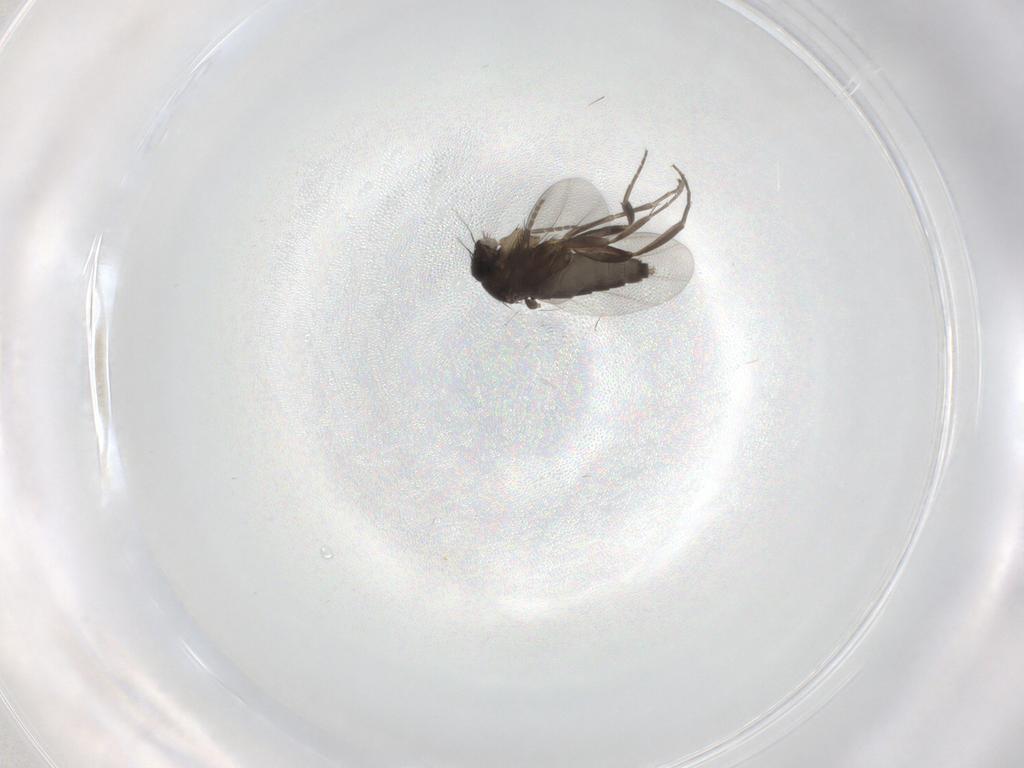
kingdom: Animalia
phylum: Arthropoda
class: Insecta
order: Diptera
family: Phoridae
